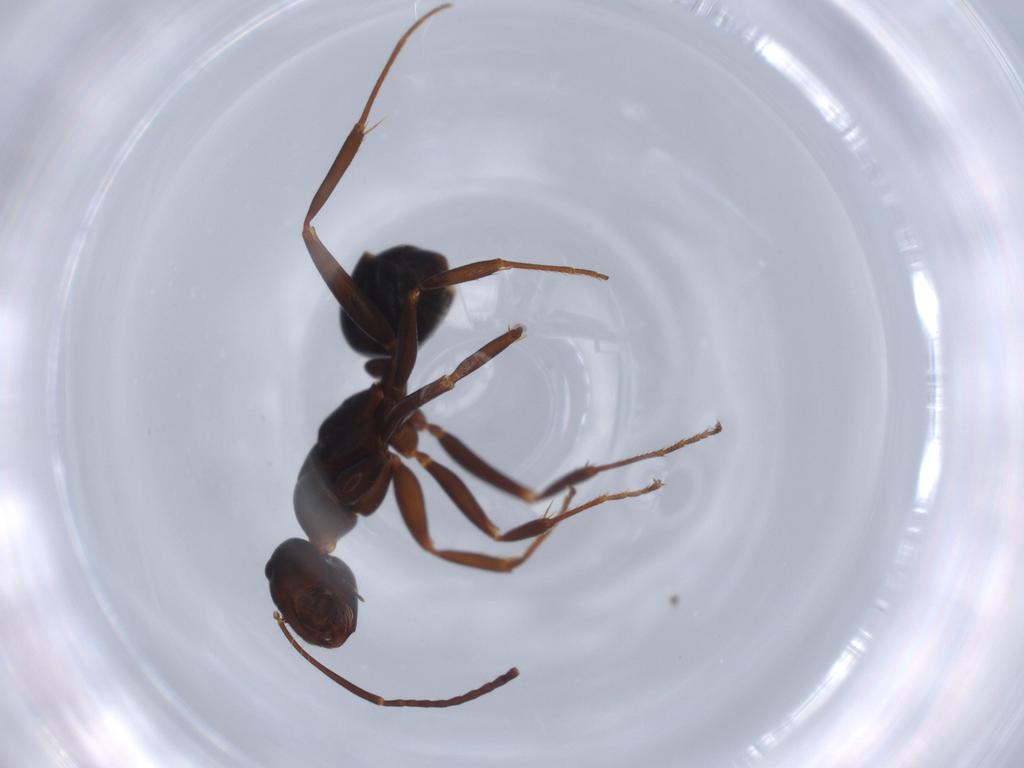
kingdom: Animalia
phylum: Arthropoda
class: Insecta
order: Hymenoptera
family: Formicidae
